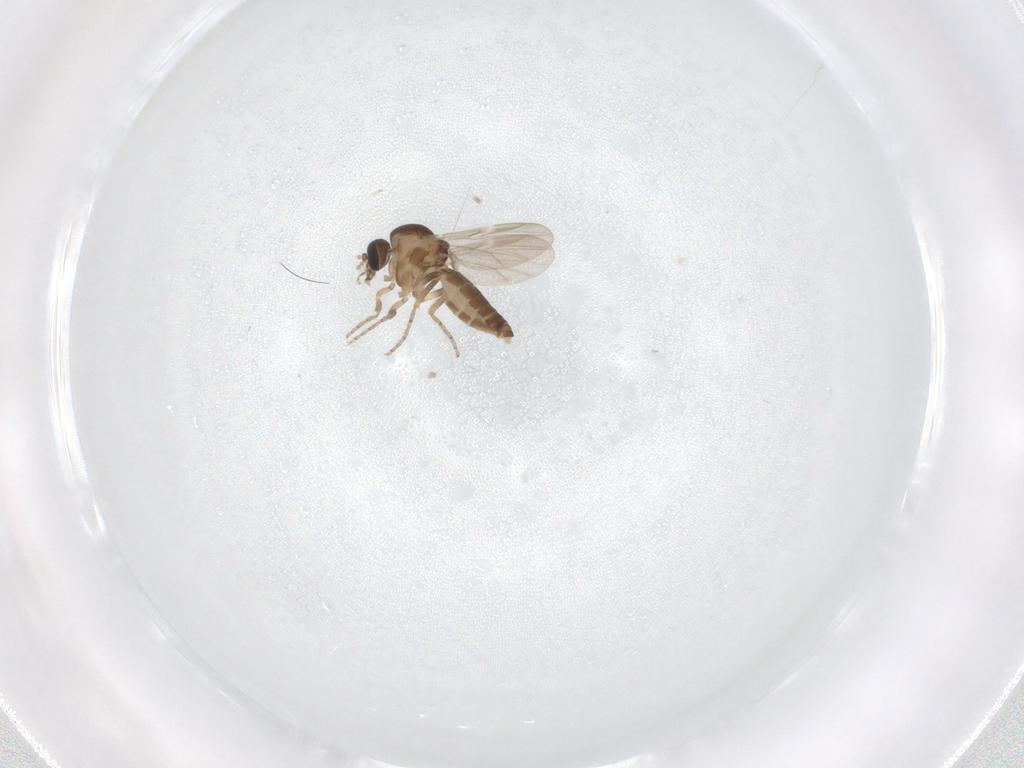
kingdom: Animalia
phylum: Arthropoda
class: Insecta
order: Diptera
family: Ceratopogonidae
